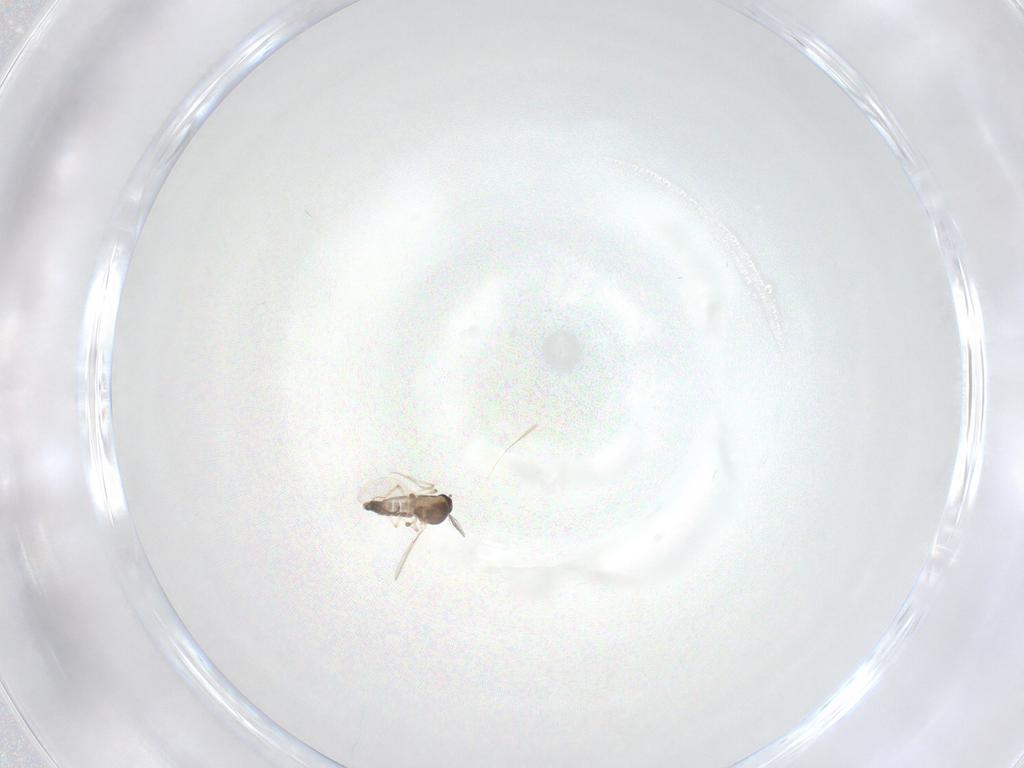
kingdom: Animalia
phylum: Arthropoda
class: Insecta
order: Diptera
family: Ceratopogonidae
